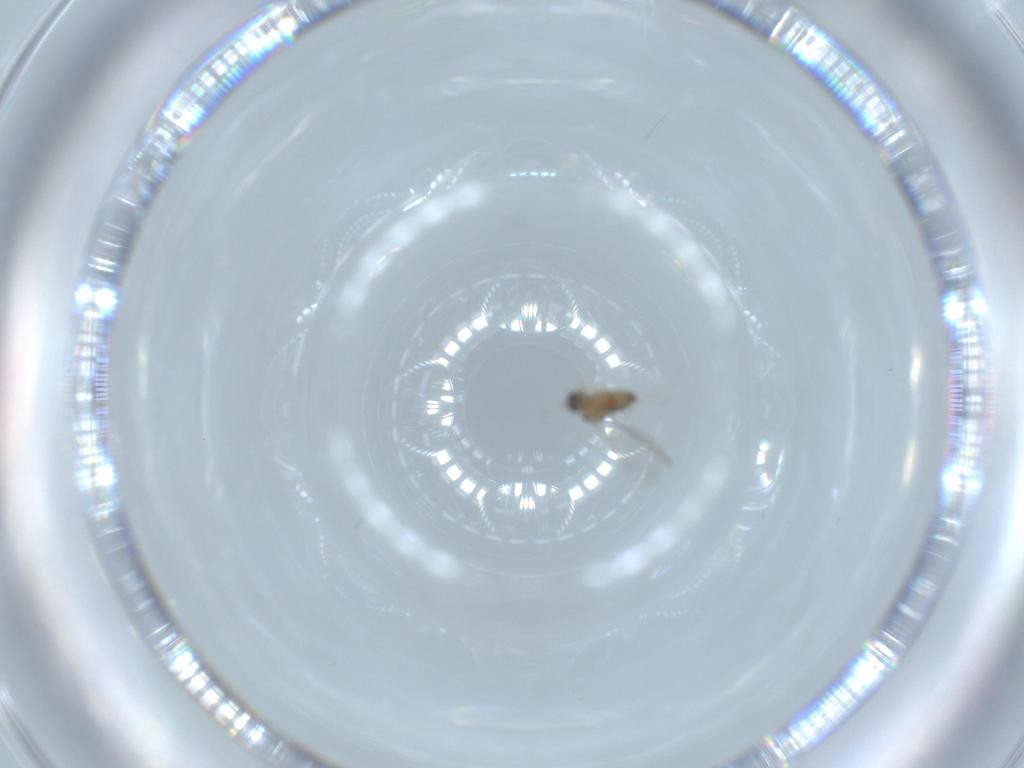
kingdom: Animalia
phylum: Arthropoda
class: Insecta
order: Diptera
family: Cecidomyiidae
